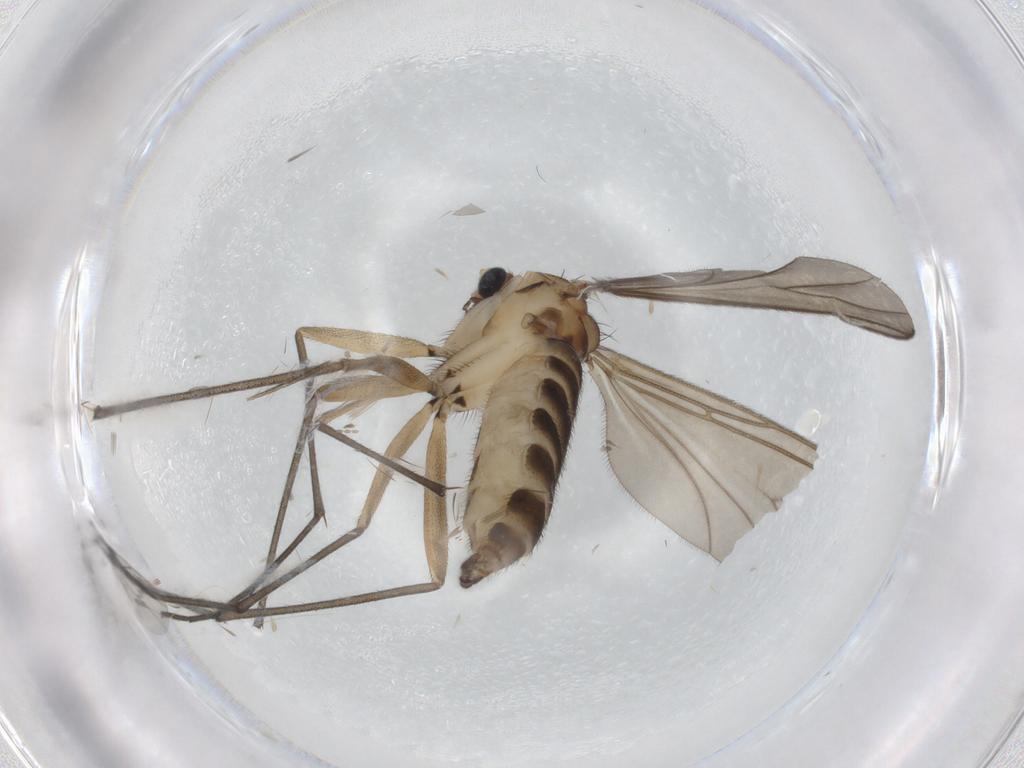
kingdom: Animalia
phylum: Arthropoda
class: Insecta
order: Diptera
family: Sciaridae
